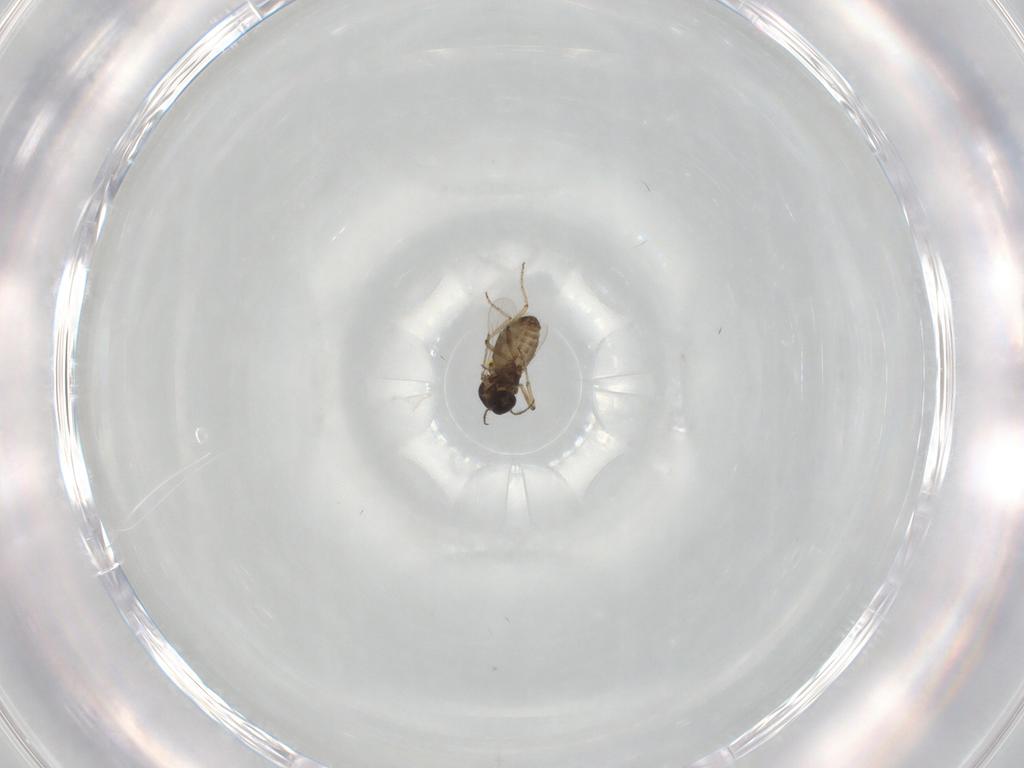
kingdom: Animalia
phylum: Arthropoda
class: Insecta
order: Diptera
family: Ceratopogonidae
